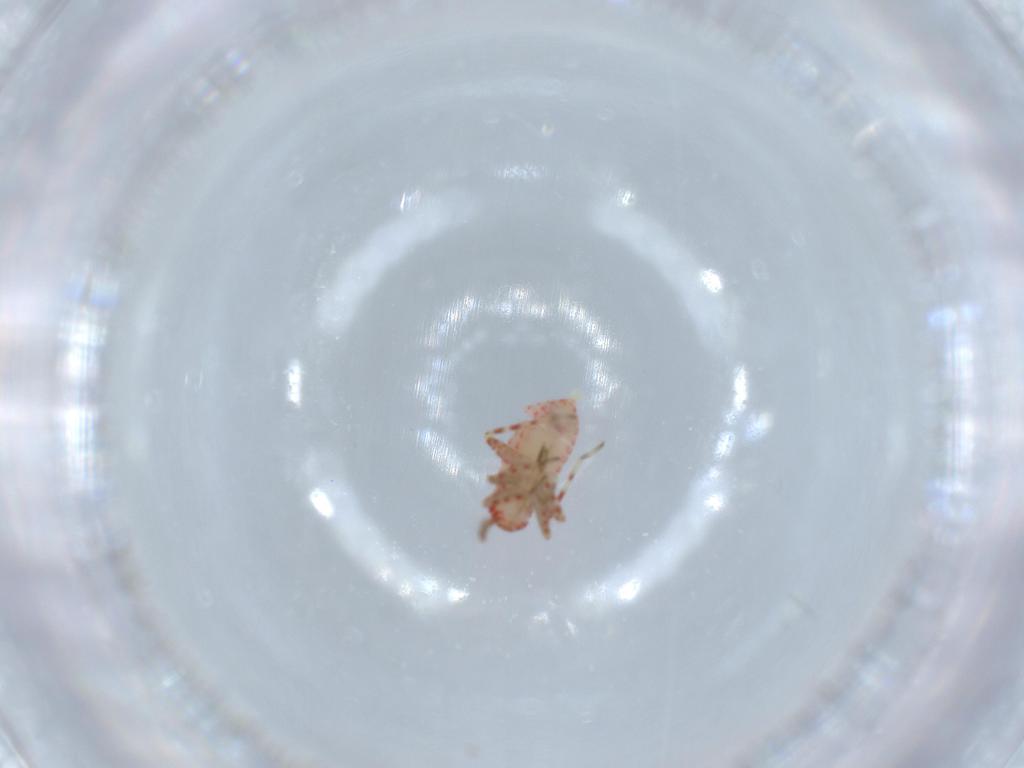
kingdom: Animalia
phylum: Arthropoda
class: Insecta
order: Hemiptera
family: Miridae
